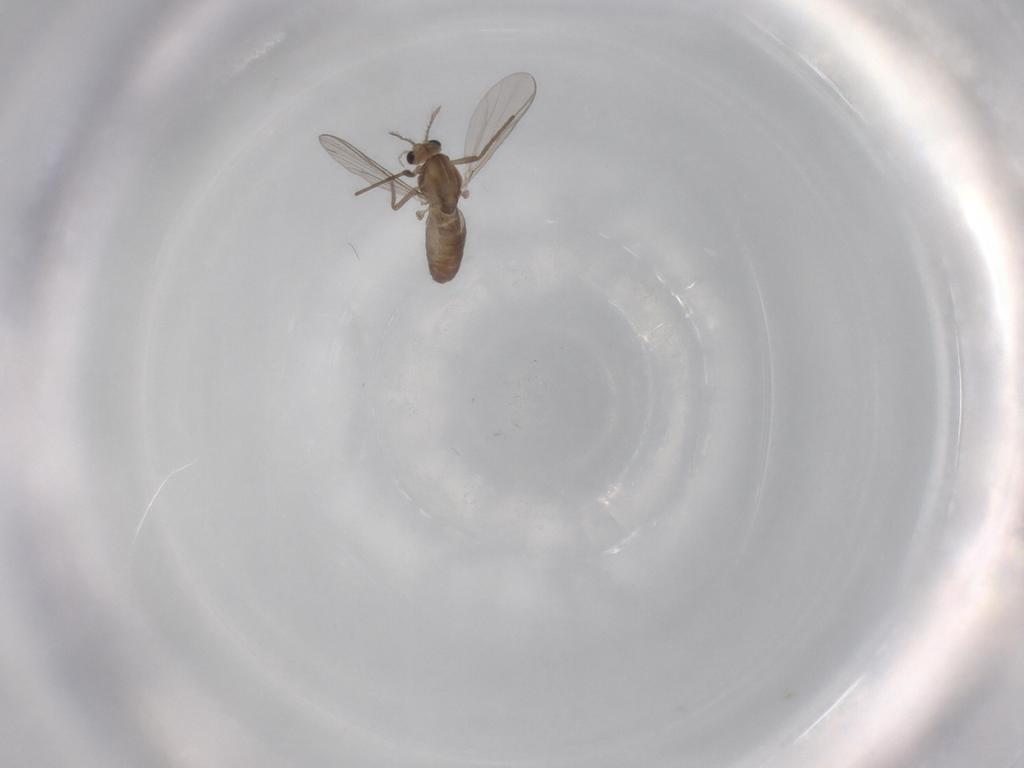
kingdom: Animalia
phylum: Arthropoda
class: Insecta
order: Diptera
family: Chironomidae
